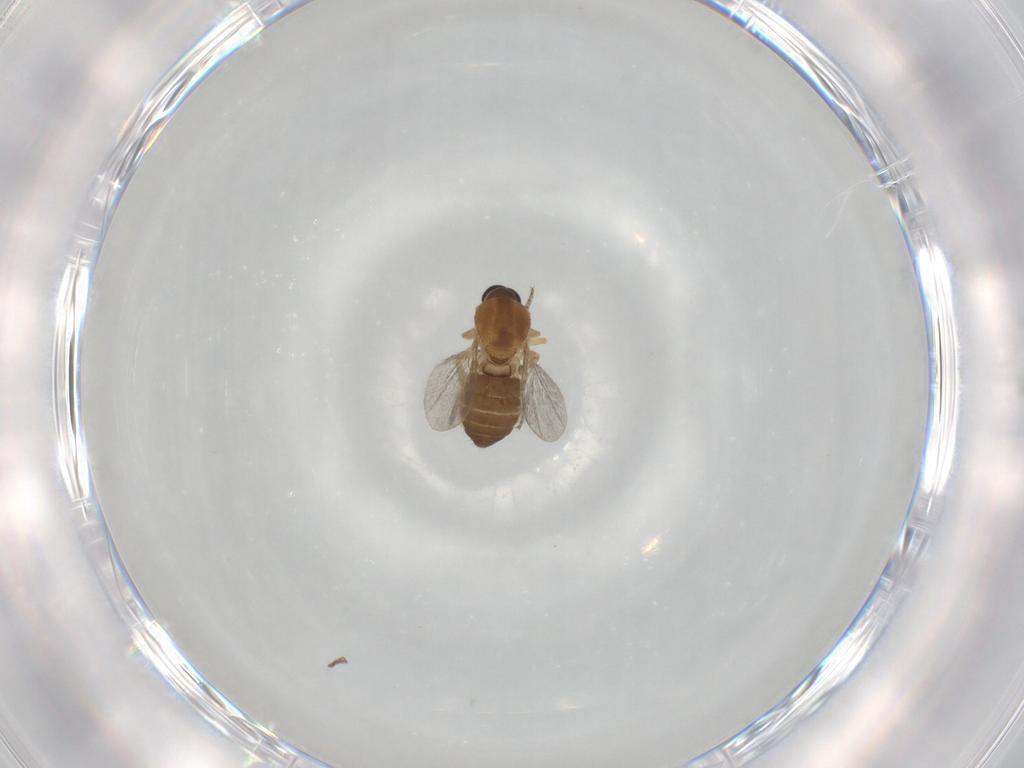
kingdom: Animalia
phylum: Arthropoda
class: Insecta
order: Diptera
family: Ceratopogonidae
